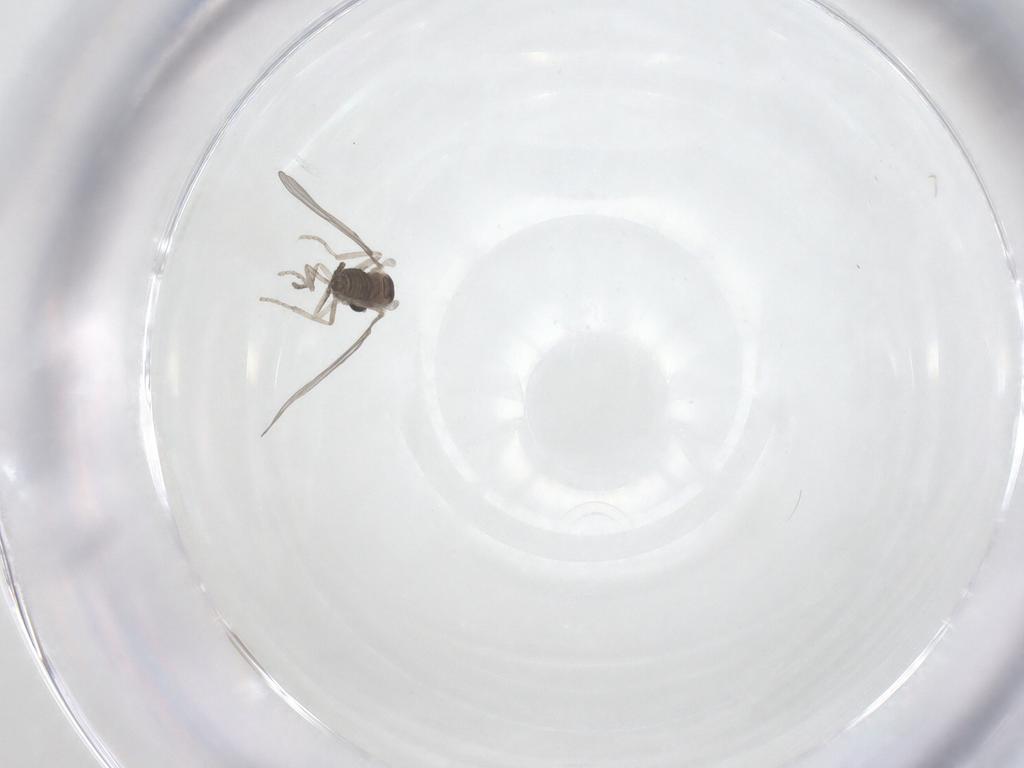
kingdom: Animalia
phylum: Arthropoda
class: Insecta
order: Diptera
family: Cecidomyiidae
